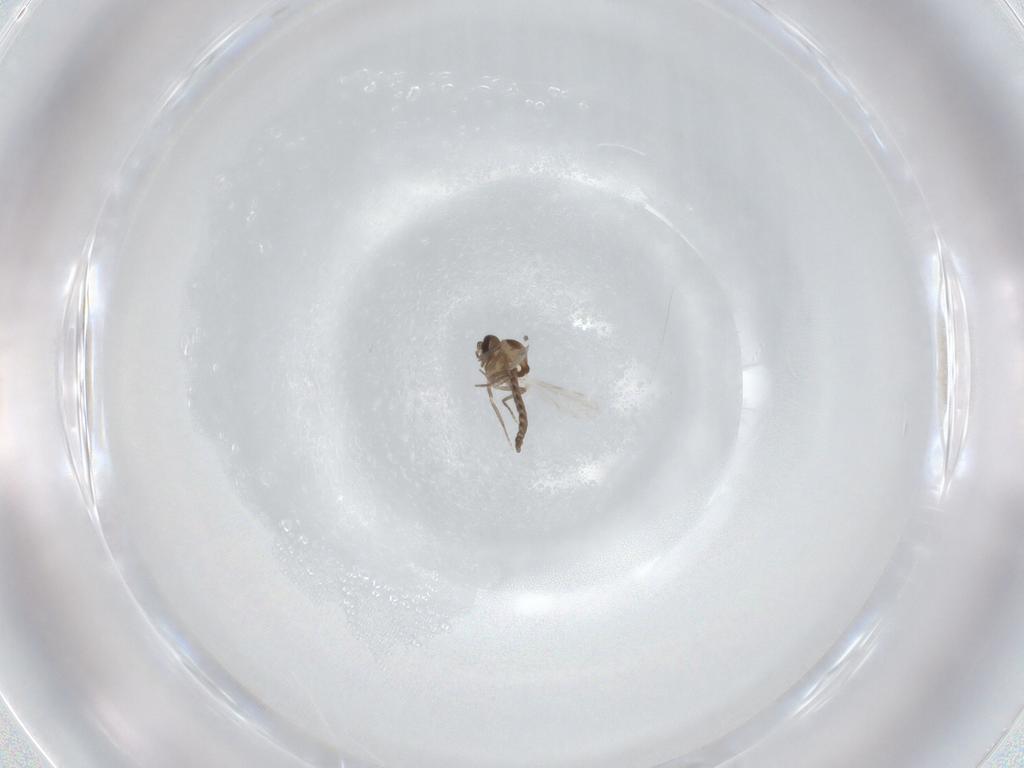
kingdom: Animalia
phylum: Arthropoda
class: Insecta
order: Diptera
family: Ceratopogonidae
